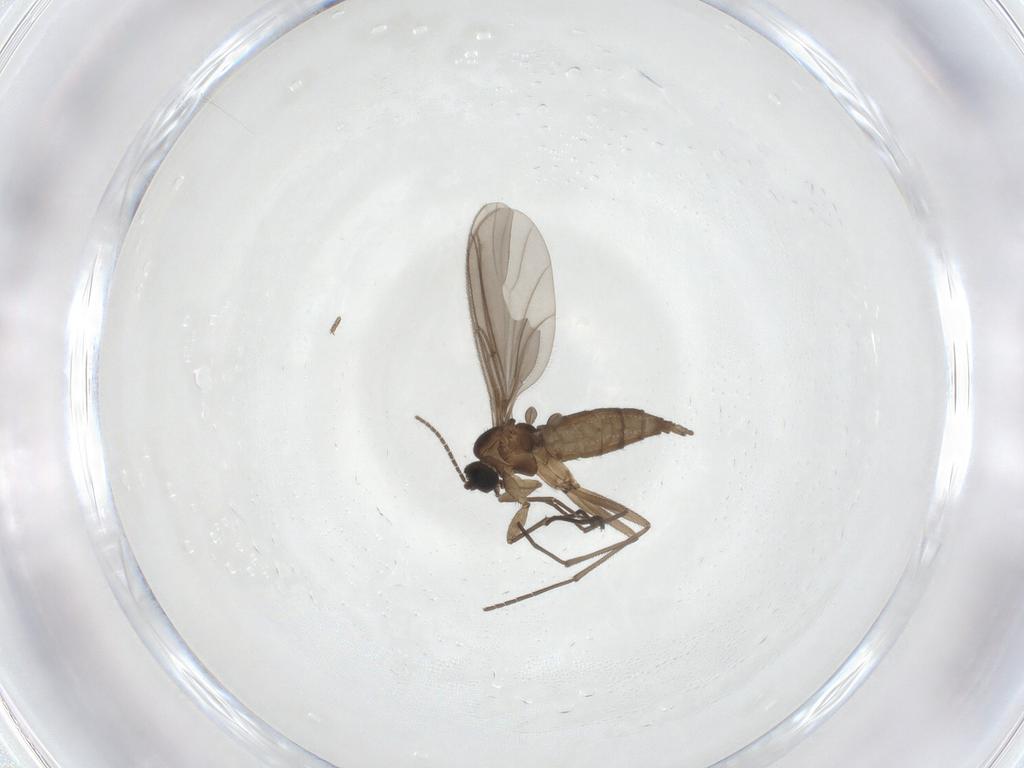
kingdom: Animalia
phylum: Arthropoda
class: Insecta
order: Diptera
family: Sciaridae
